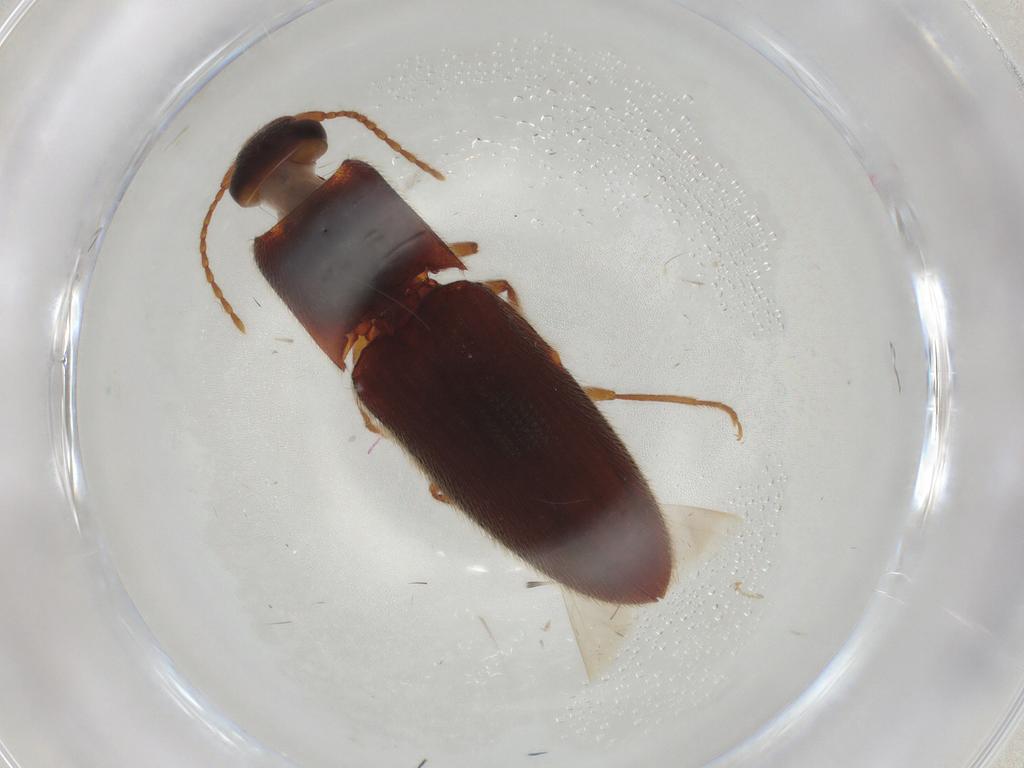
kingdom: Animalia
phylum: Arthropoda
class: Insecta
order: Coleoptera
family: Elateridae
